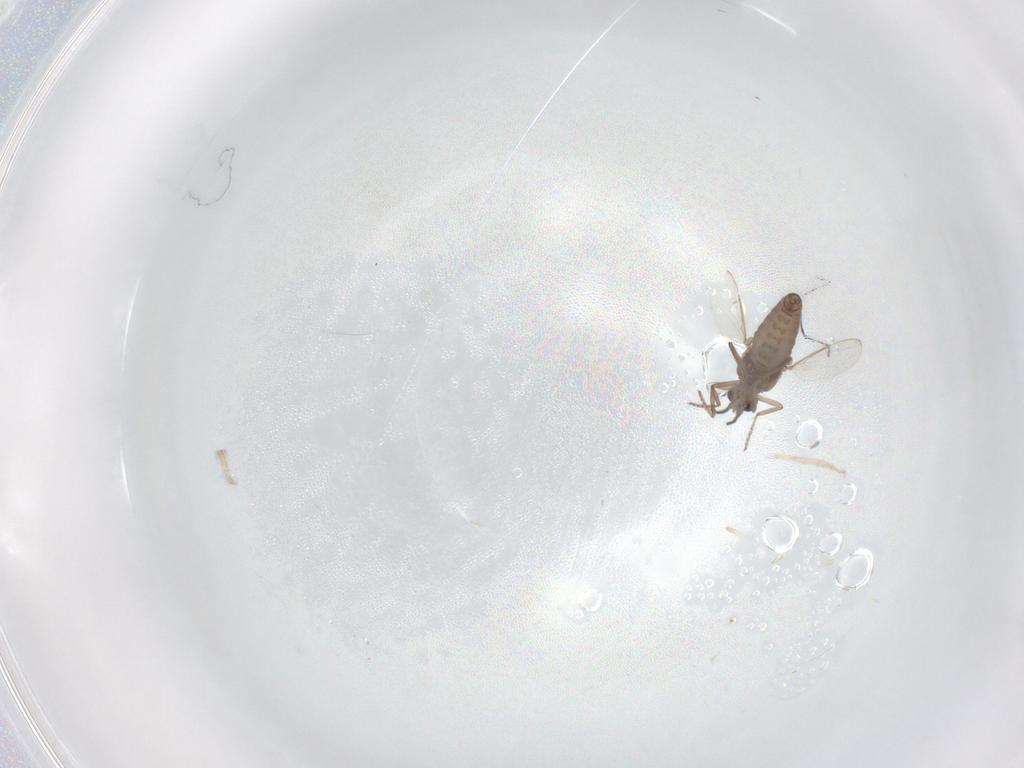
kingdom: Animalia
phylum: Arthropoda
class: Insecta
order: Diptera
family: Ceratopogonidae
